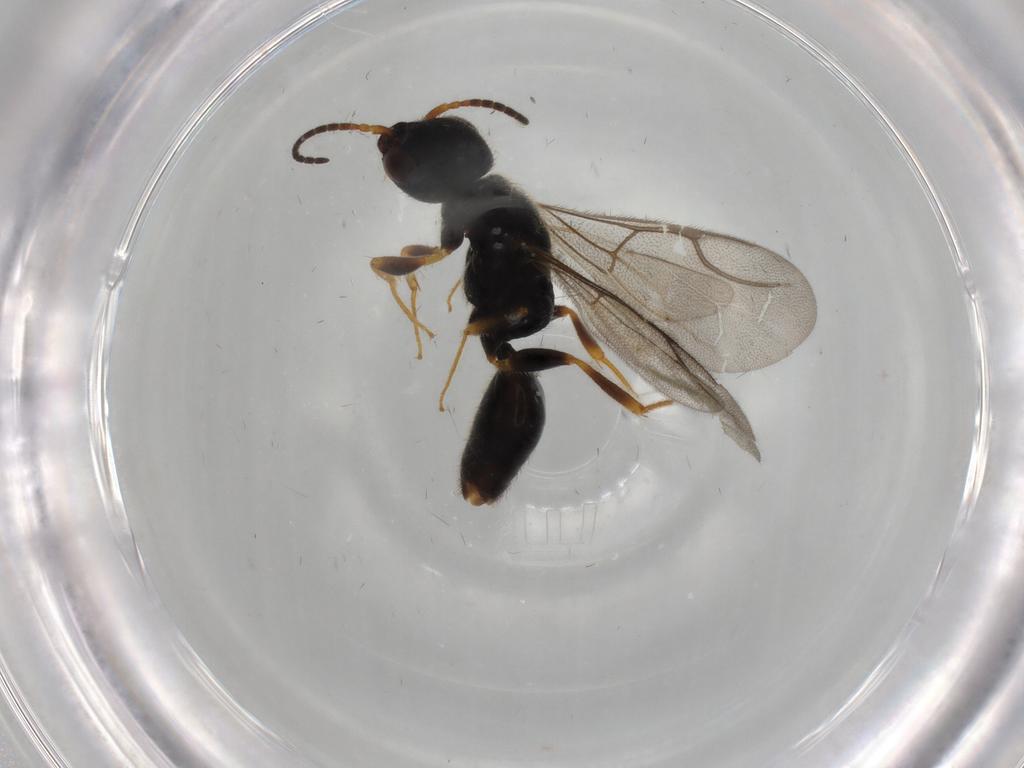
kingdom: Animalia
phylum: Arthropoda
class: Insecta
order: Hymenoptera
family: Bethylidae
